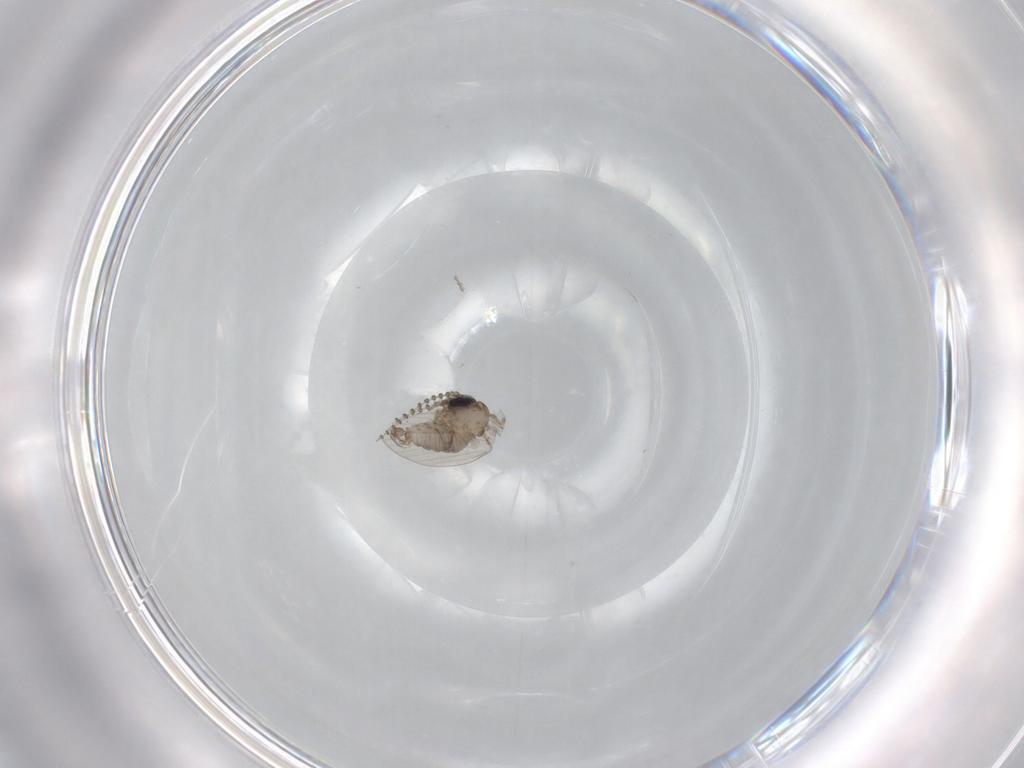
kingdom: Animalia
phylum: Arthropoda
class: Insecta
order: Diptera
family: Psychodidae
